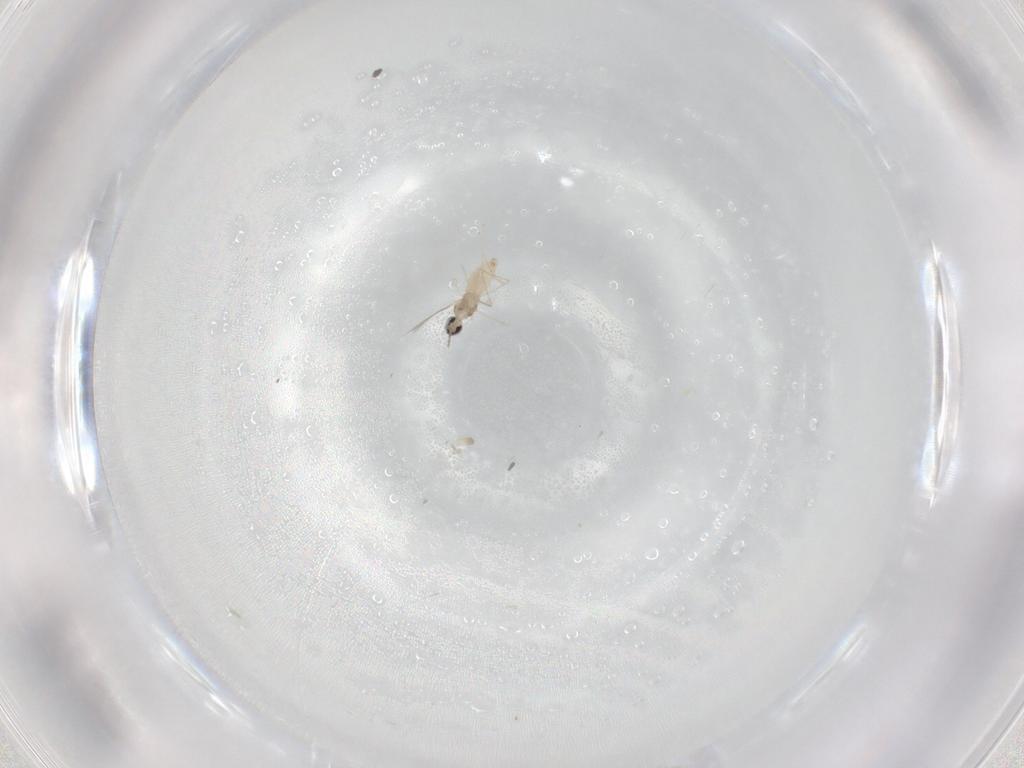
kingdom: Animalia
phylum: Arthropoda
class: Insecta
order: Diptera
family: Cecidomyiidae
